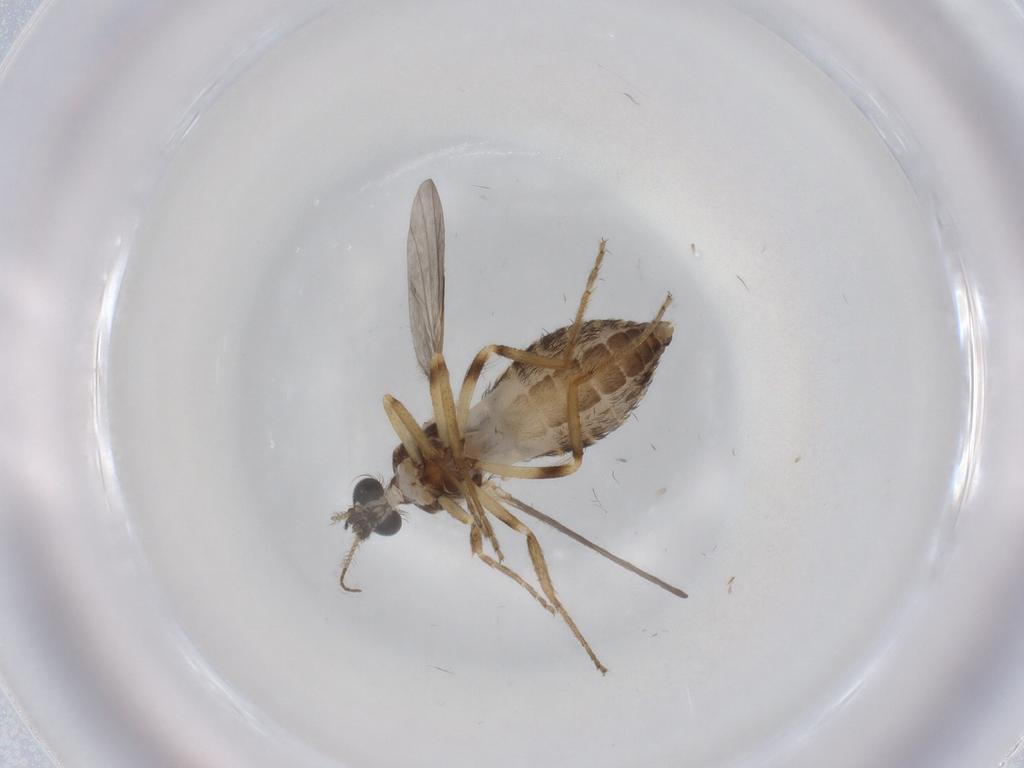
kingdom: Animalia
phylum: Arthropoda
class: Insecta
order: Diptera
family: Ceratopogonidae
